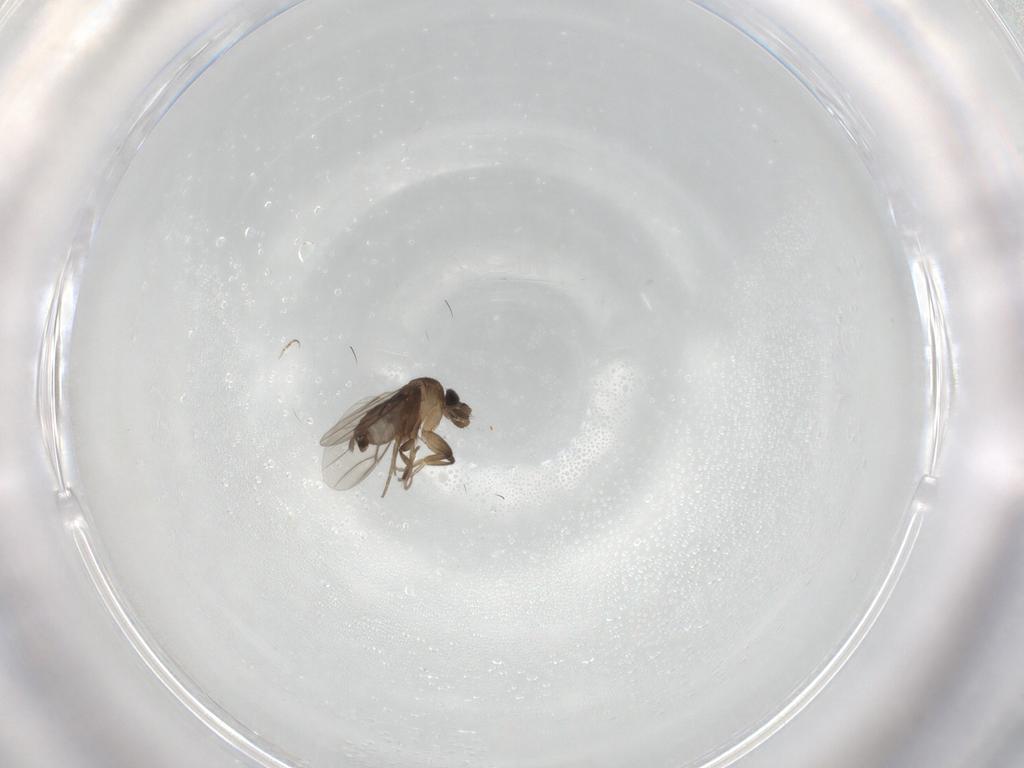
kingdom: Animalia
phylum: Arthropoda
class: Insecta
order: Diptera
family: Phoridae
